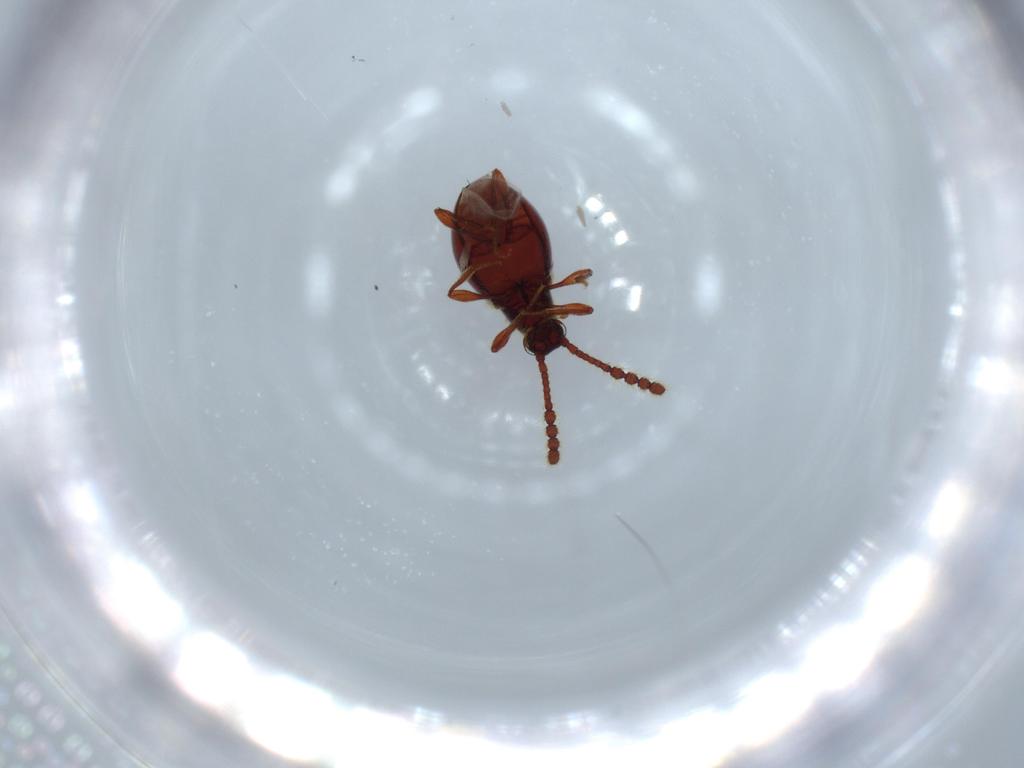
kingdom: Animalia
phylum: Arthropoda
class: Insecta
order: Coleoptera
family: Staphylinidae
